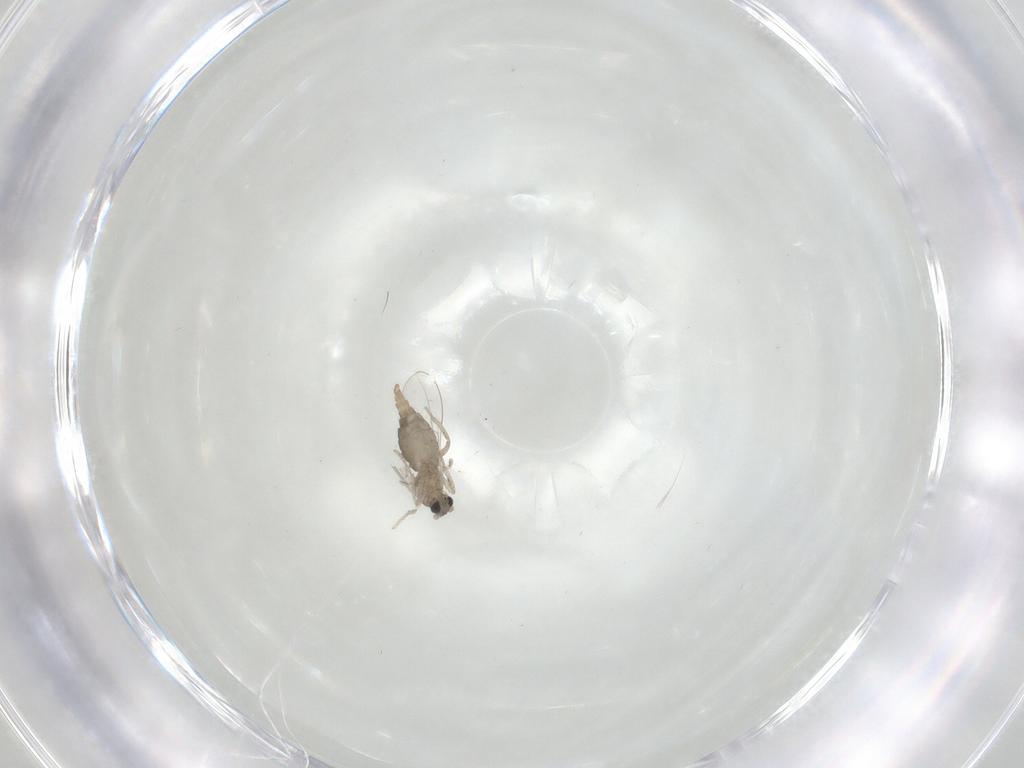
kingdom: Animalia
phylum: Arthropoda
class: Insecta
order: Diptera
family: Cecidomyiidae
